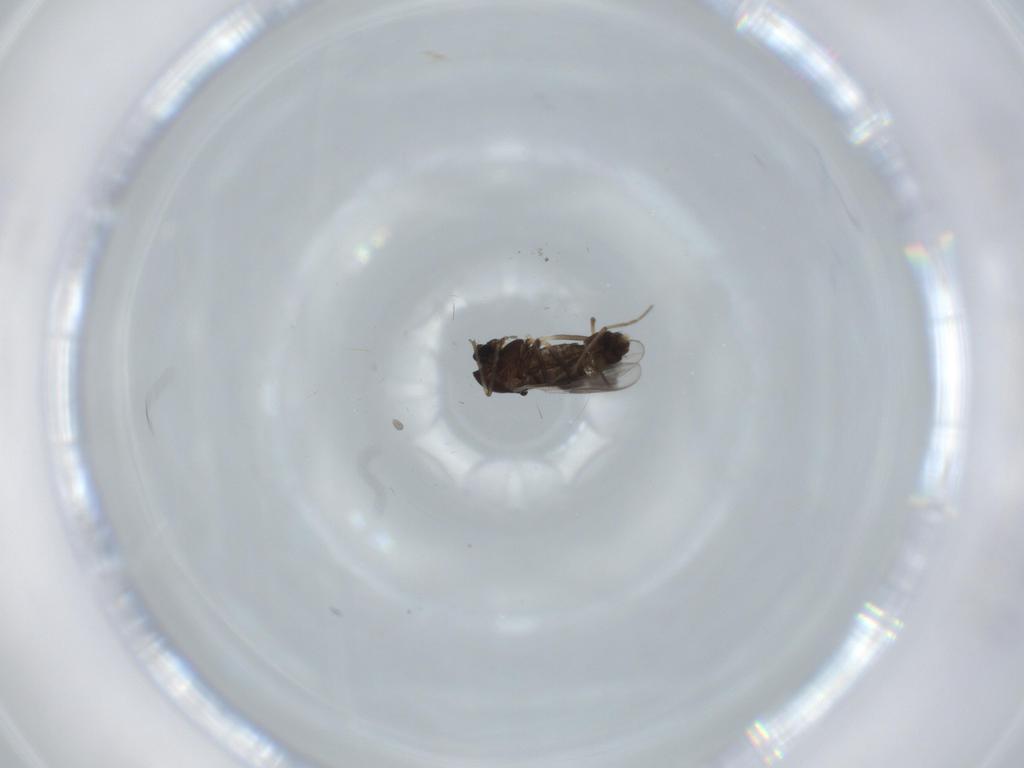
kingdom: Animalia
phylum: Arthropoda
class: Insecta
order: Diptera
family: Chironomidae
